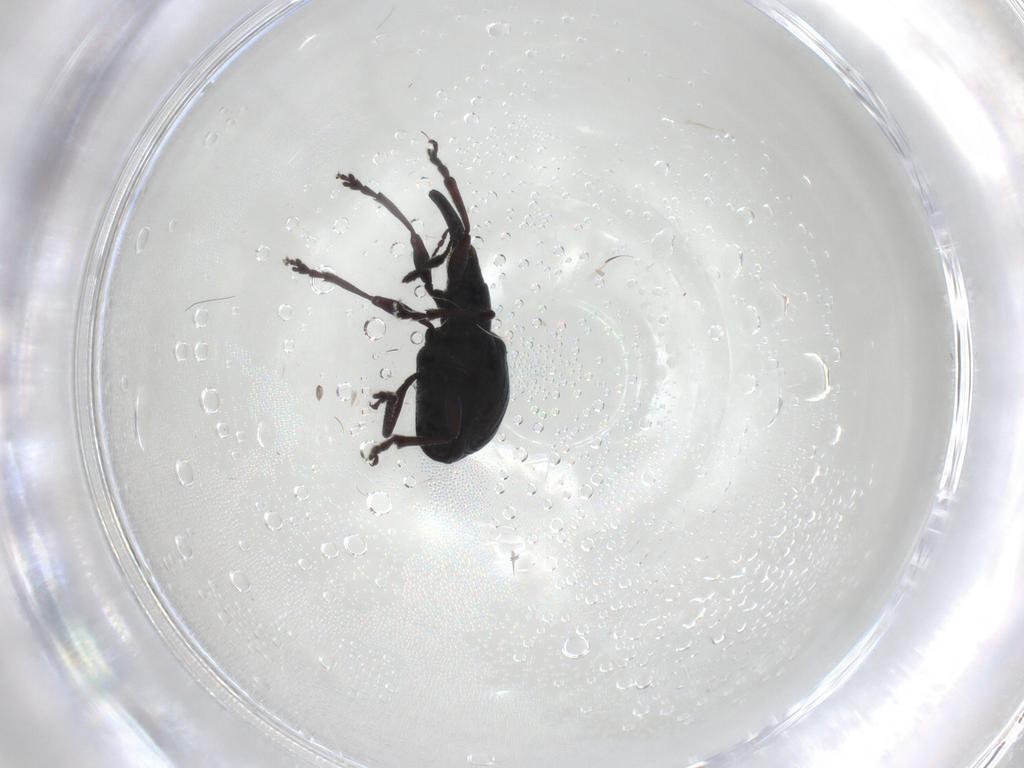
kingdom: Animalia
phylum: Arthropoda
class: Insecta
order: Coleoptera
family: Brentidae
